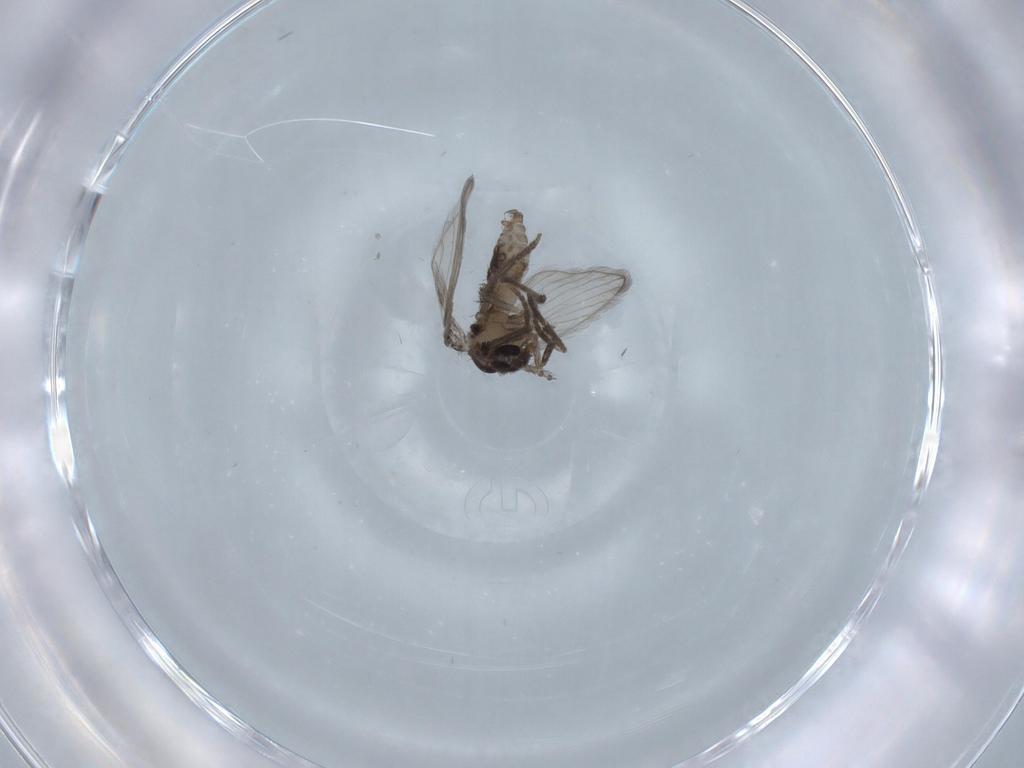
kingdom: Animalia
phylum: Arthropoda
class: Insecta
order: Diptera
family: Psychodidae
